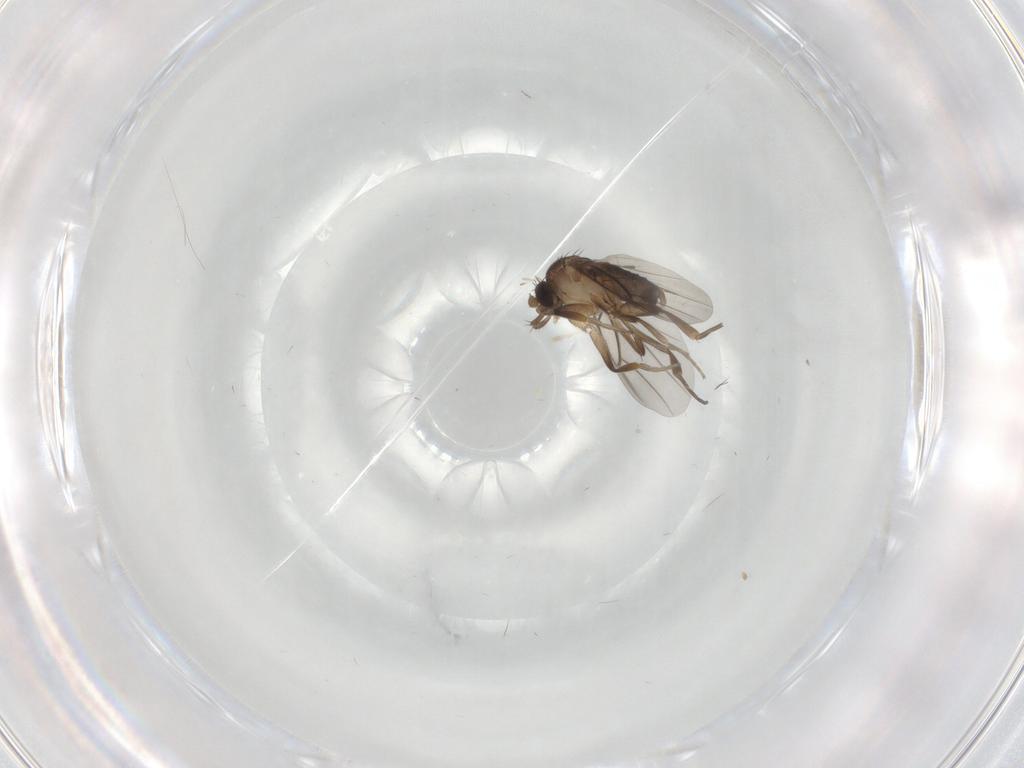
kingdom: Animalia
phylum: Arthropoda
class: Insecta
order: Diptera
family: Phoridae
